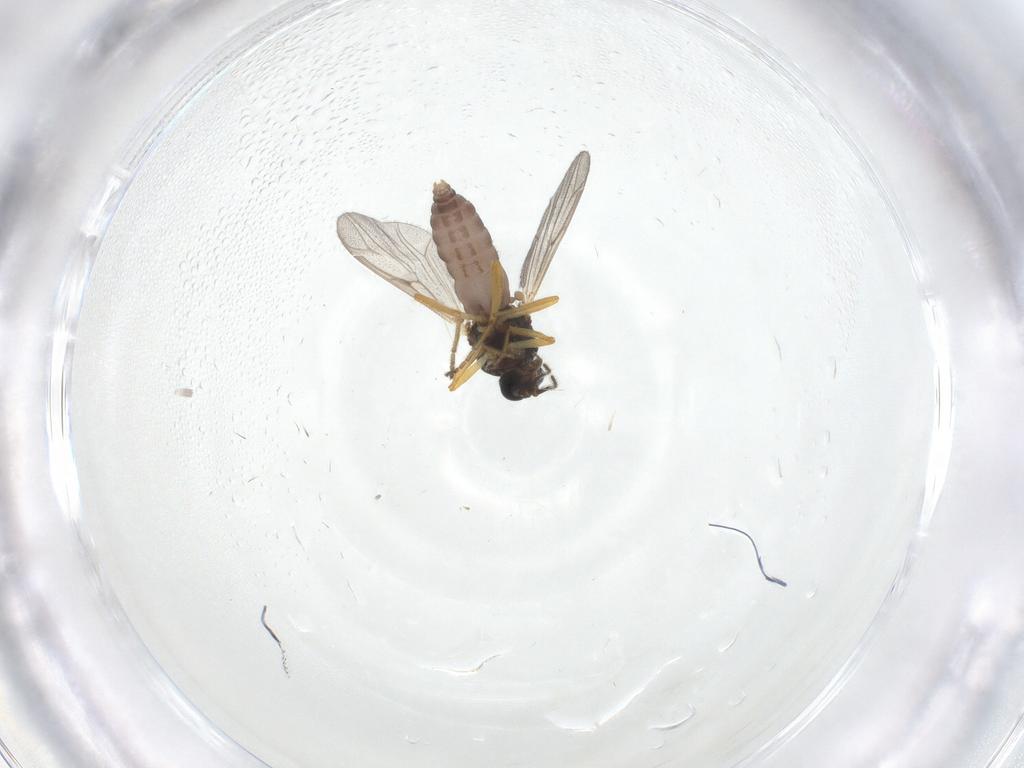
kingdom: Animalia
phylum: Arthropoda
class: Insecta
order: Diptera
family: Ceratopogonidae
